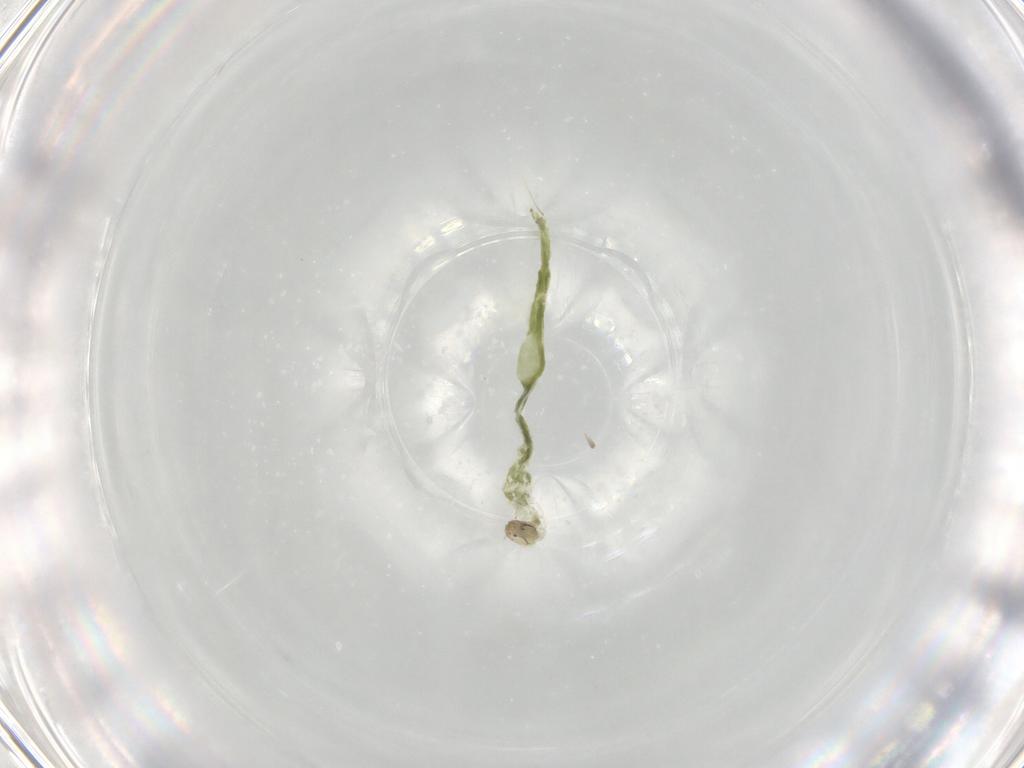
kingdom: Animalia
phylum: Arthropoda
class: Insecta
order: Diptera
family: Chironomidae
